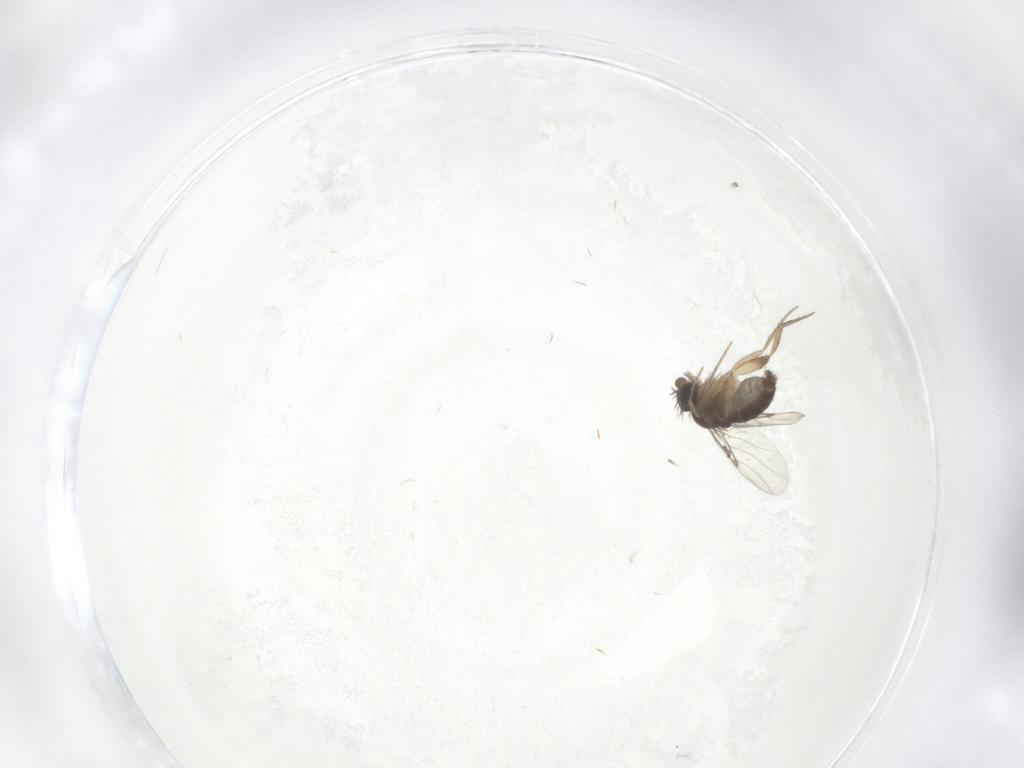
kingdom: Animalia
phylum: Arthropoda
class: Insecta
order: Diptera
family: Phoridae
